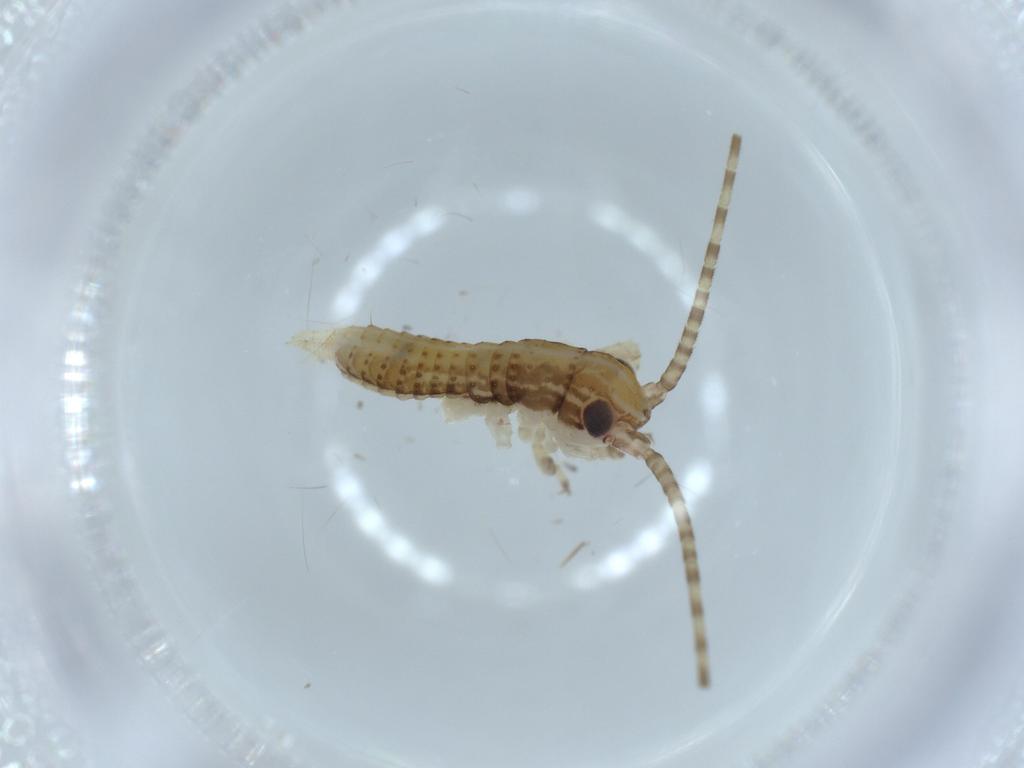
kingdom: Animalia
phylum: Arthropoda
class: Insecta
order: Orthoptera
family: Gryllidae
